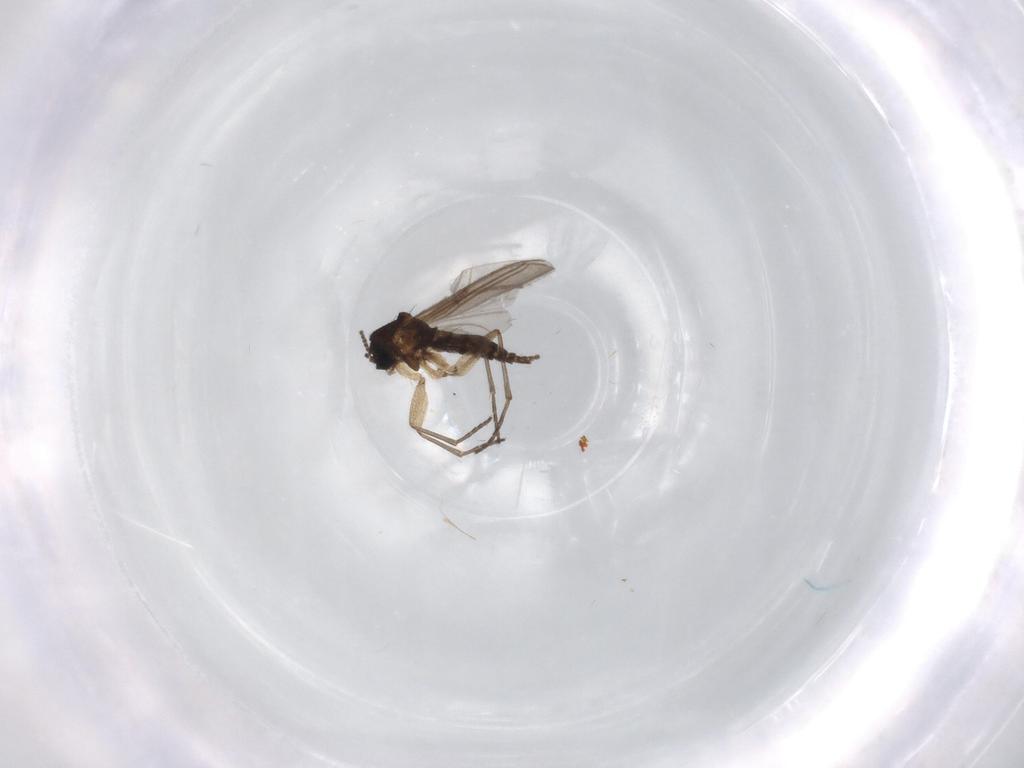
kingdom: Animalia
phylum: Arthropoda
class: Insecta
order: Diptera
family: Sciaridae
